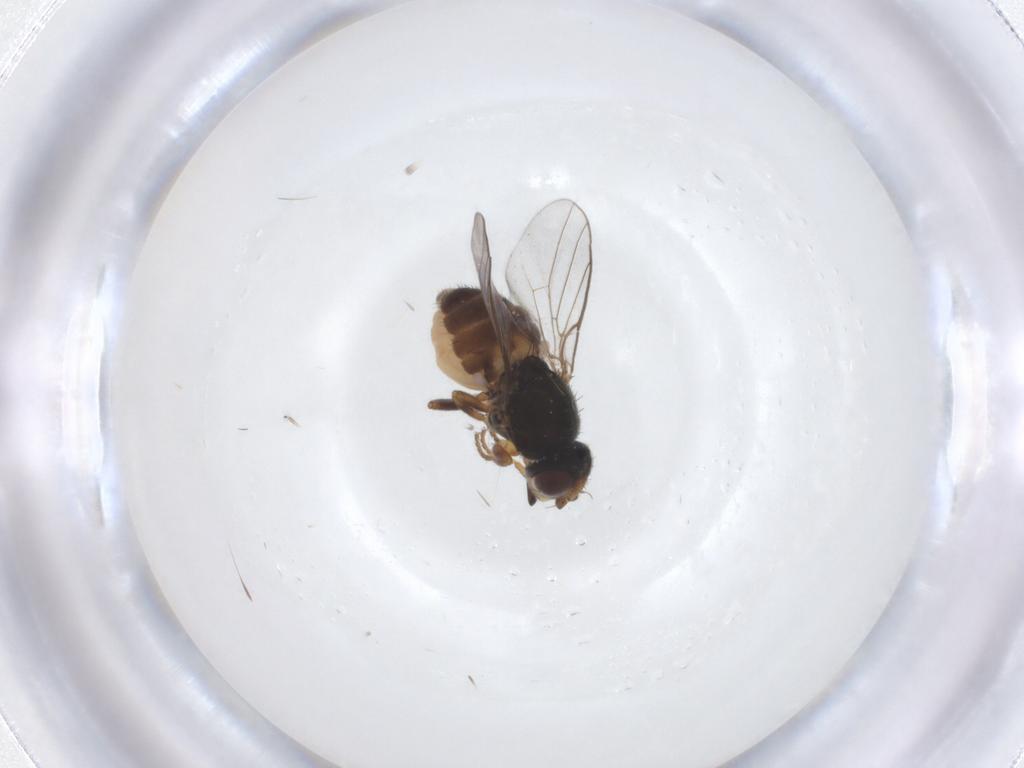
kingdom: Animalia
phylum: Arthropoda
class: Insecta
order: Diptera
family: Chloropidae
